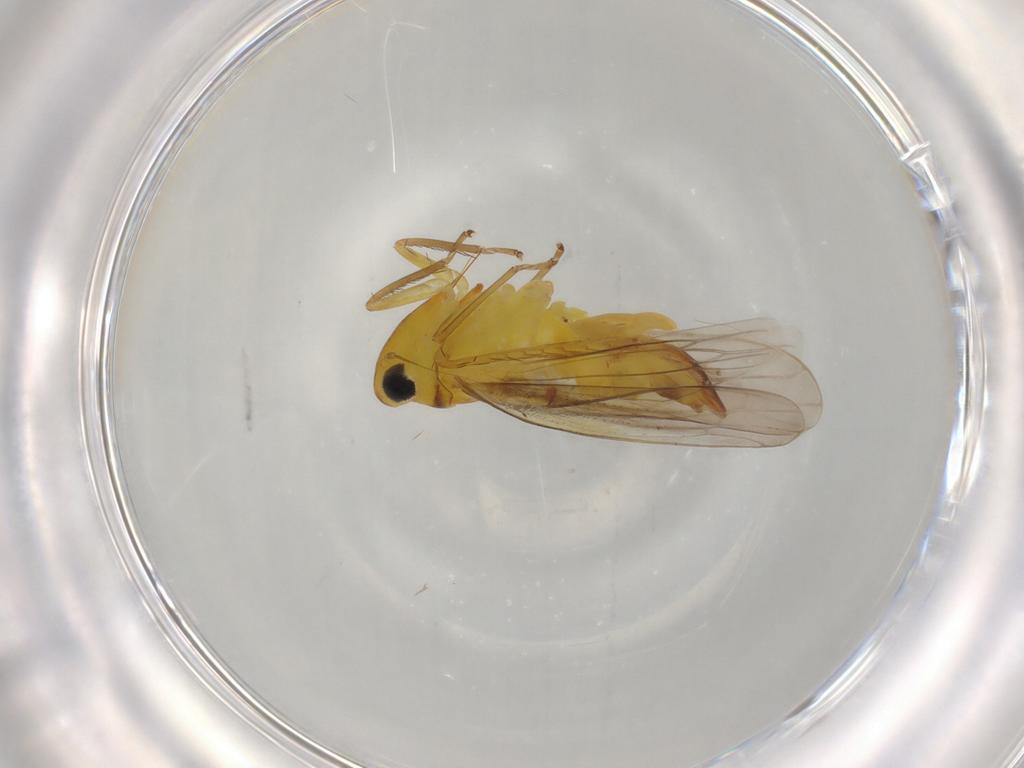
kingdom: Animalia
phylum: Arthropoda
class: Insecta
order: Hemiptera
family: Cicadellidae
